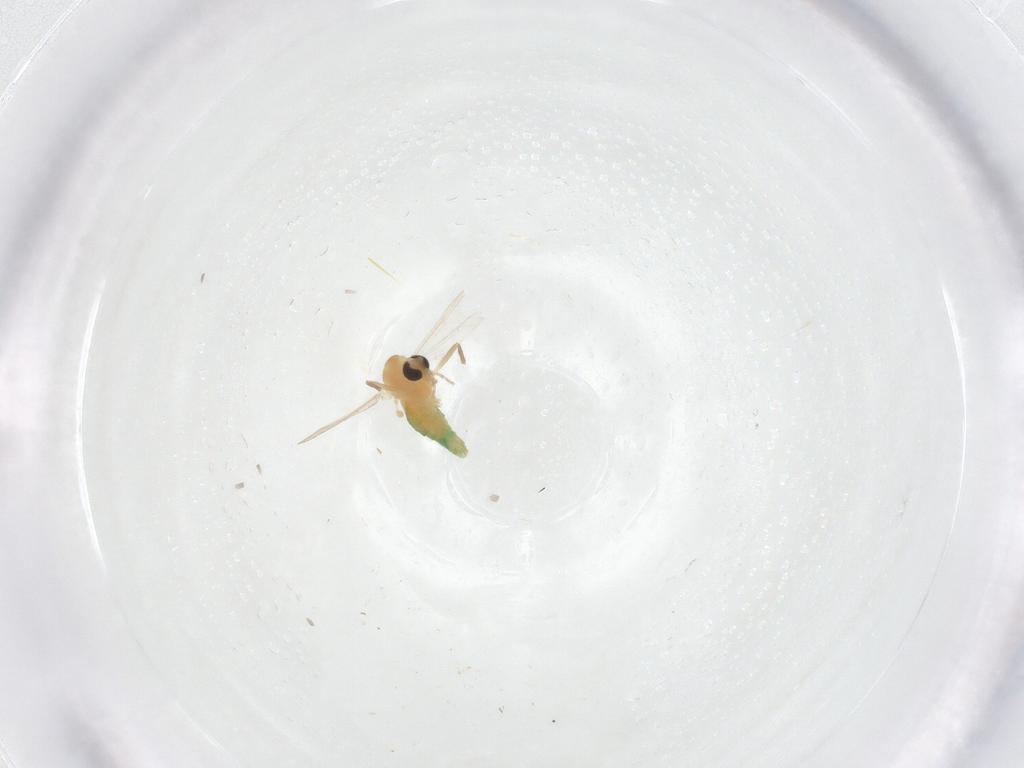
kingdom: Animalia
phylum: Arthropoda
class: Insecta
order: Diptera
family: Chironomidae
